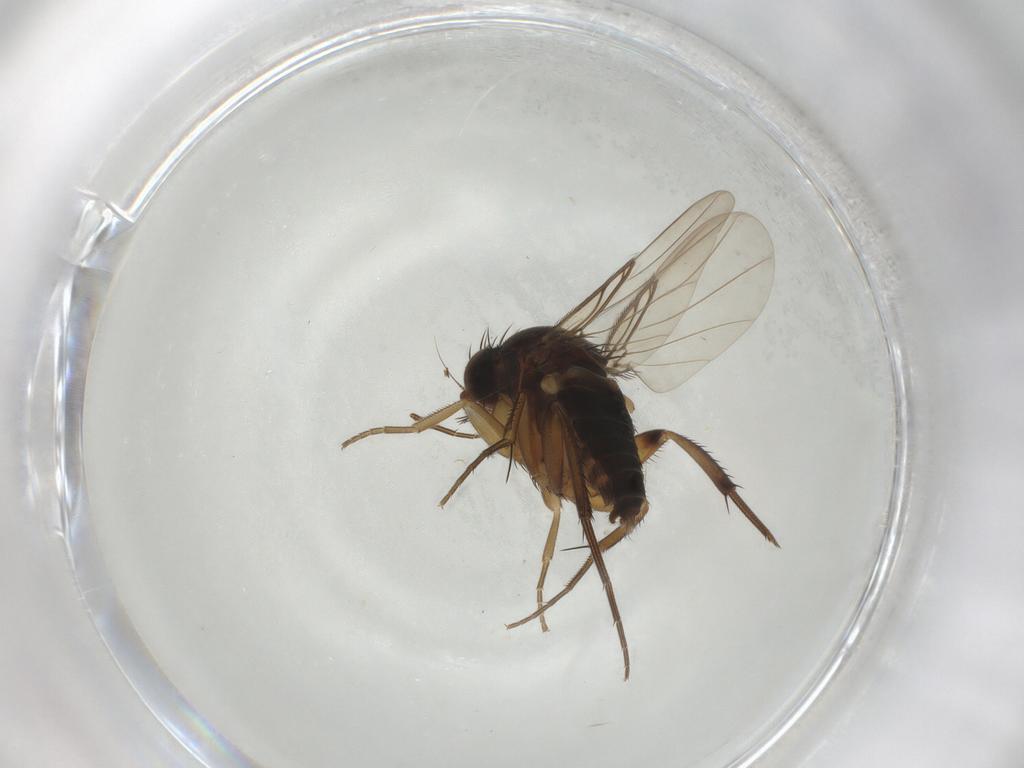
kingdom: Animalia
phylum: Arthropoda
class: Insecta
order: Diptera
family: Phoridae
